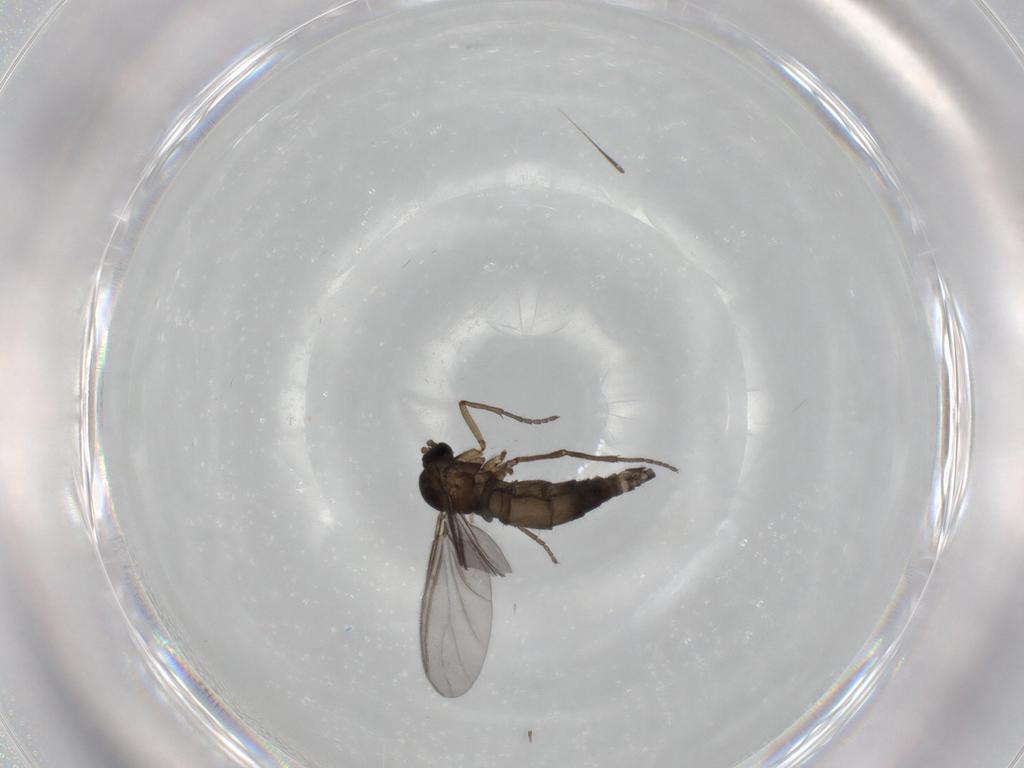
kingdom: Animalia
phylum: Arthropoda
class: Insecta
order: Diptera
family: Sciaridae
